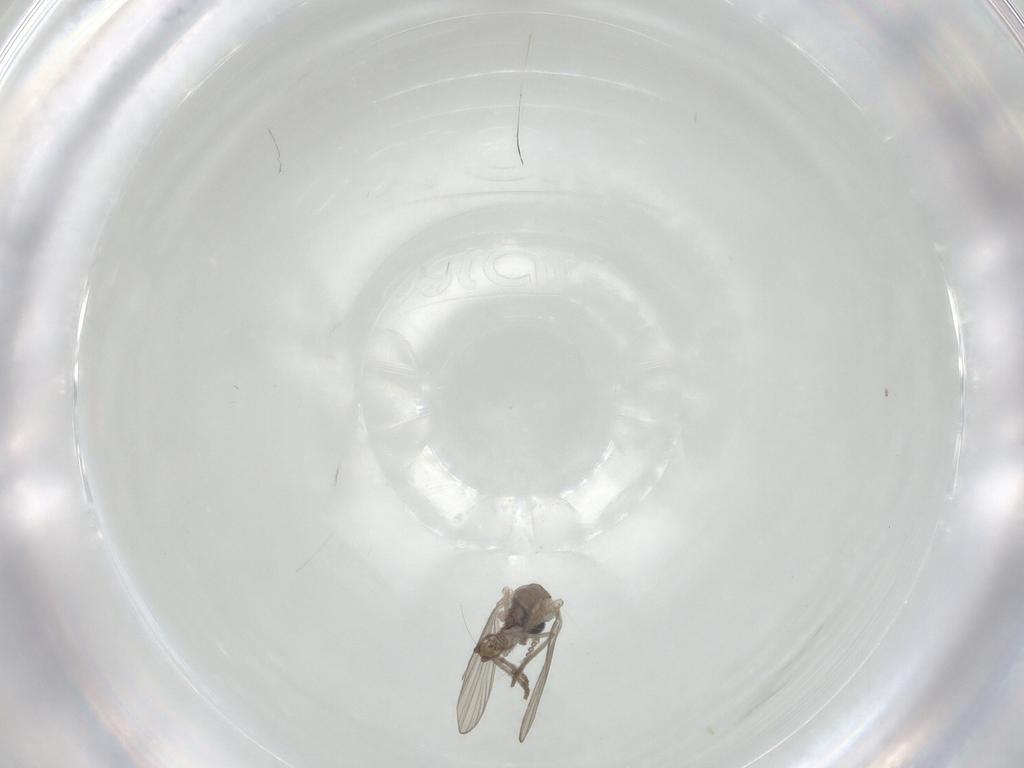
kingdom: Animalia
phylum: Arthropoda
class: Insecta
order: Diptera
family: Psychodidae
